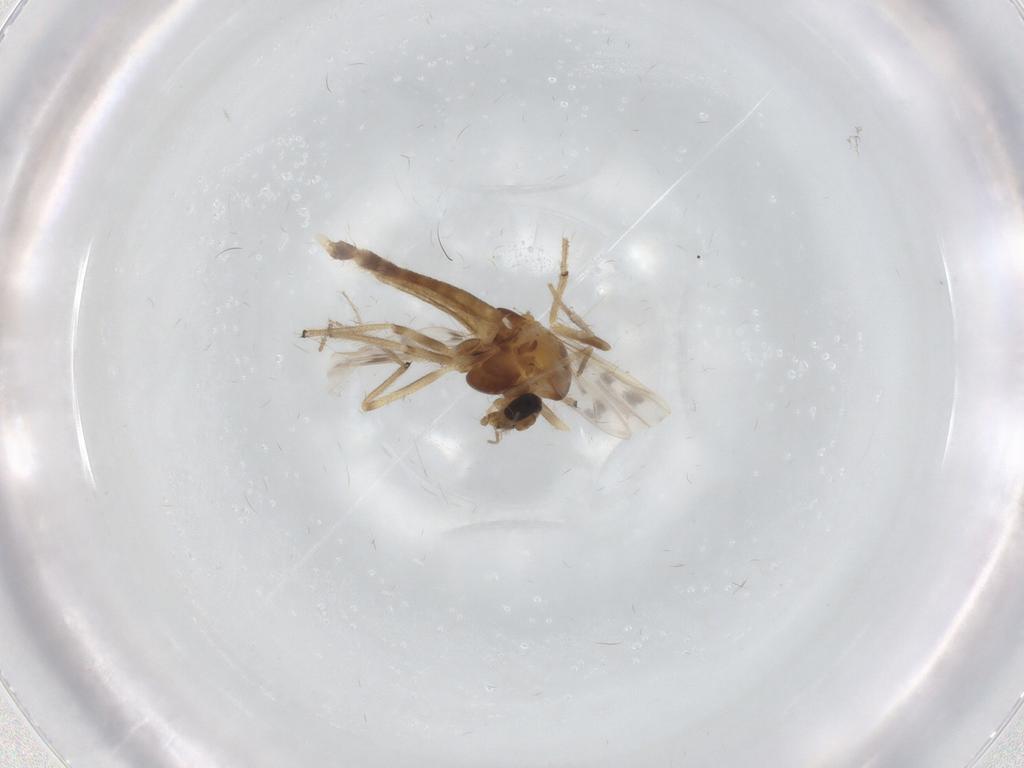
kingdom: Animalia
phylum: Arthropoda
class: Insecta
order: Diptera
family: Chironomidae
